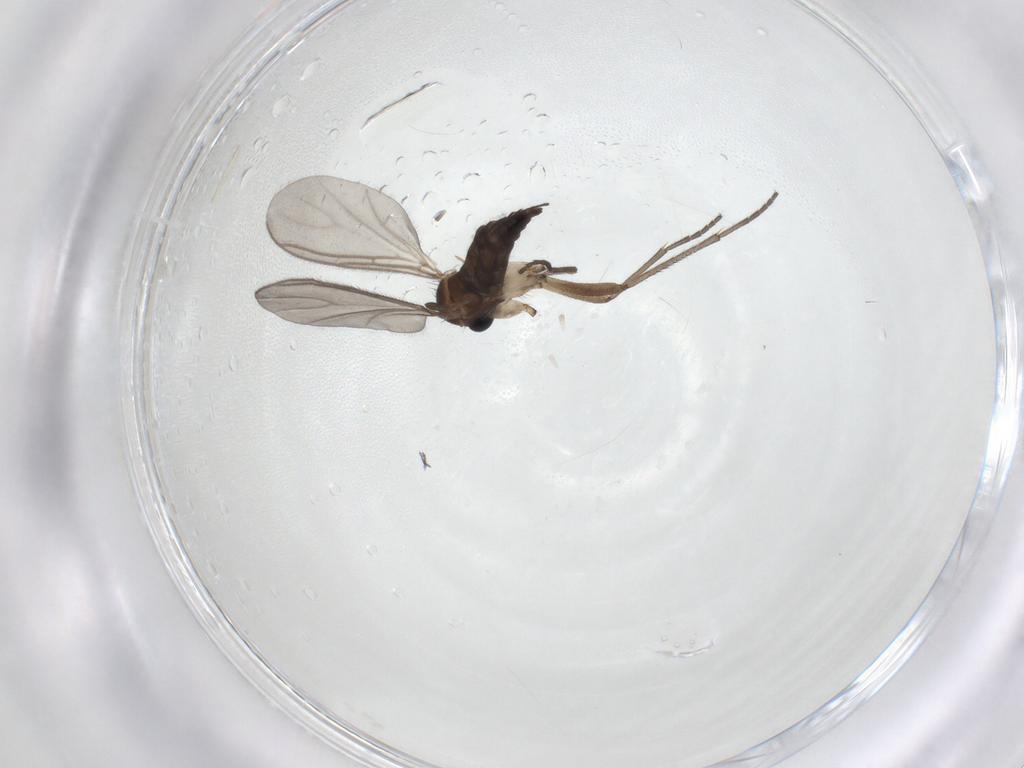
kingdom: Animalia
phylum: Arthropoda
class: Insecta
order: Diptera
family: Sciaridae
